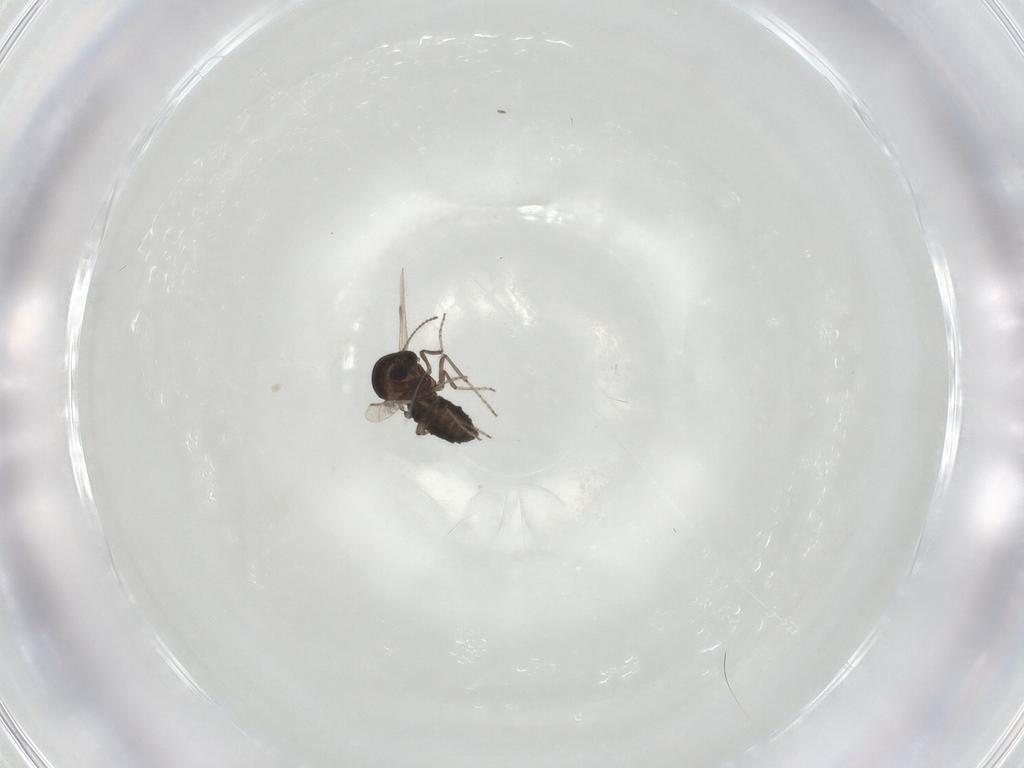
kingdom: Animalia
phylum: Arthropoda
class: Insecta
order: Diptera
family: Ceratopogonidae
